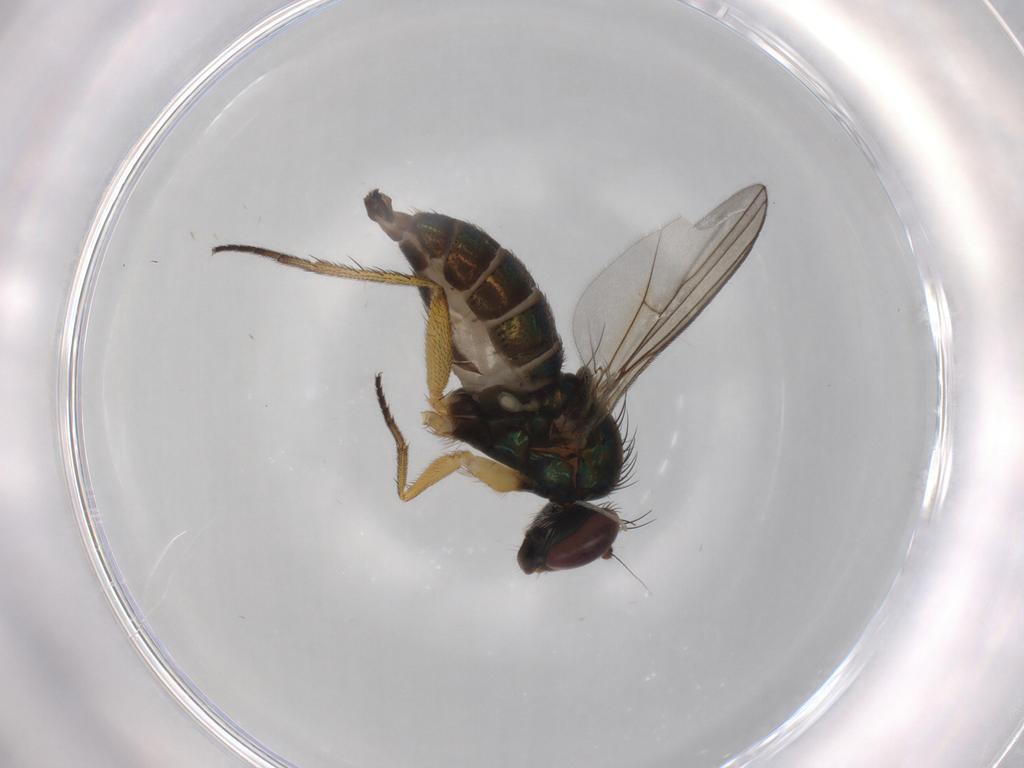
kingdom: Animalia
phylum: Arthropoda
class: Insecta
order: Diptera
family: Dolichopodidae
